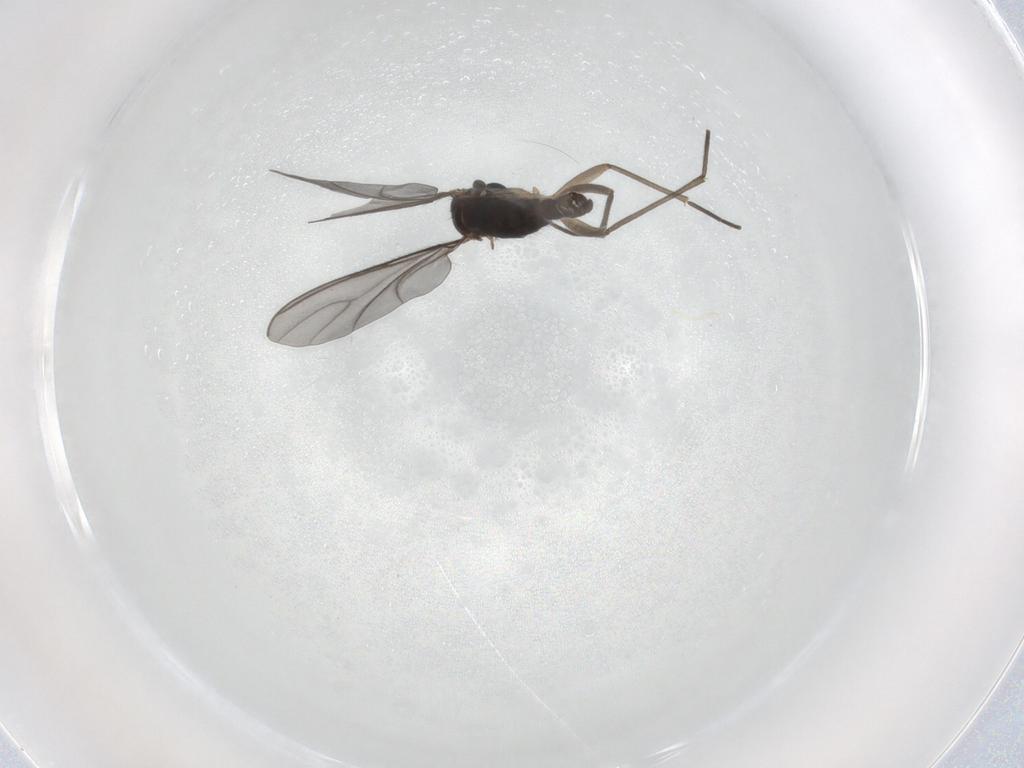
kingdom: Animalia
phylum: Arthropoda
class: Insecta
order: Diptera
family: Sciaridae
